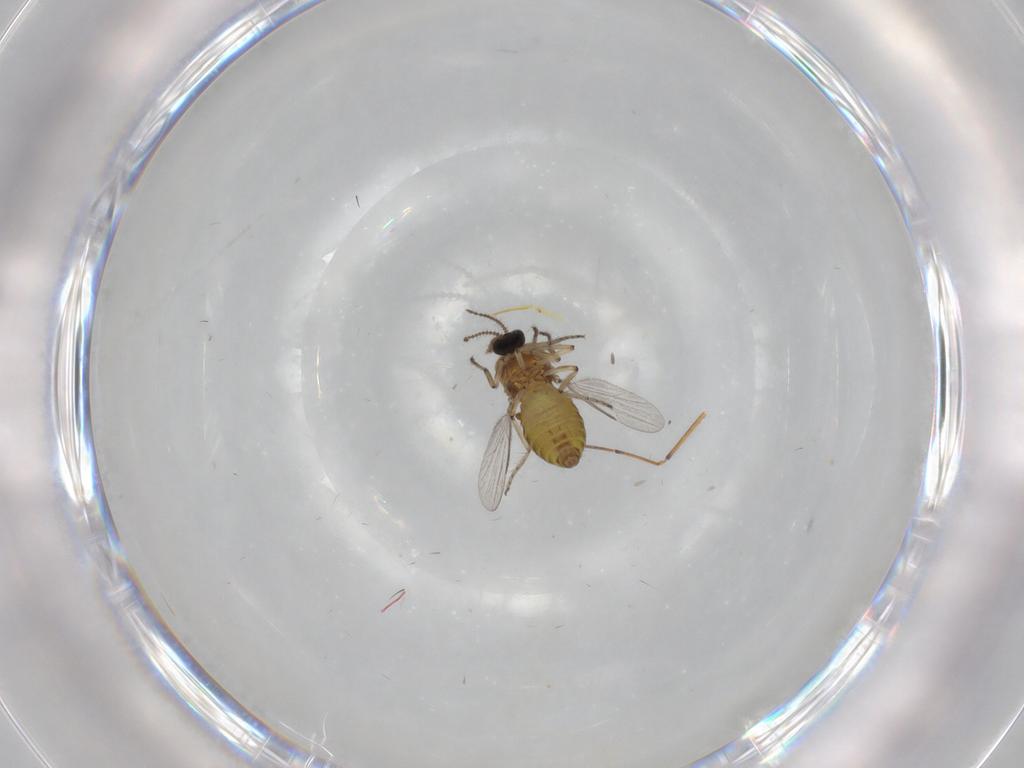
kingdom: Animalia
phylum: Arthropoda
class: Insecta
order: Diptera
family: Ceratopogonidae
